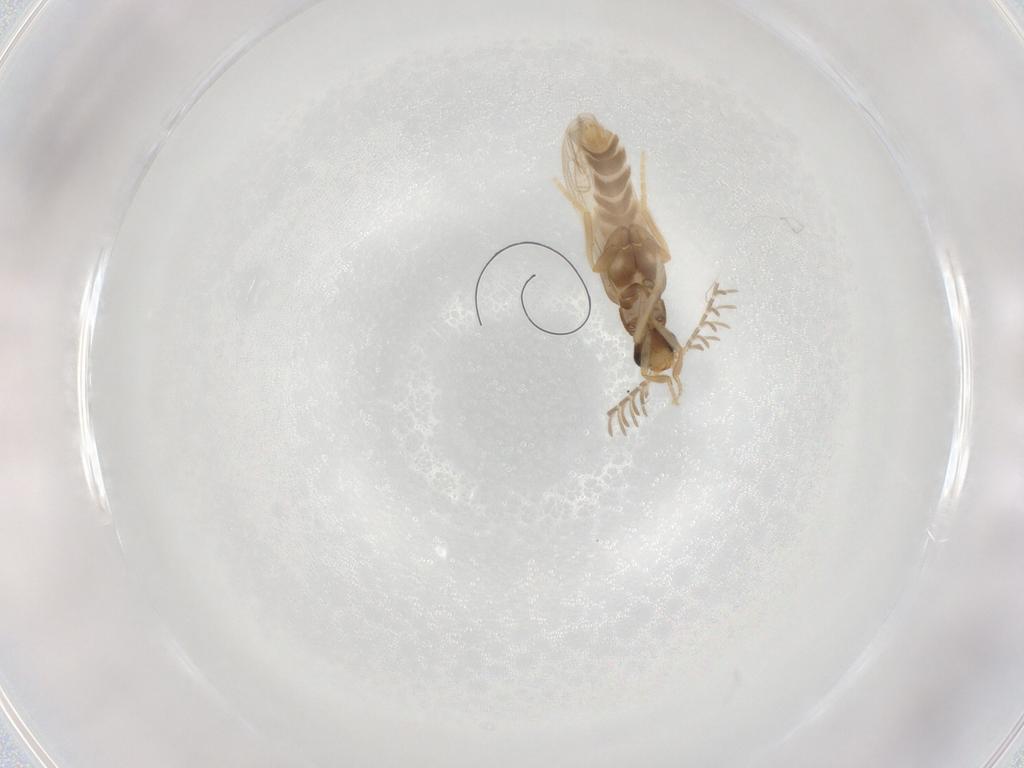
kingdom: Animalia
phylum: Arthropoda
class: Insecta
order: Coleoptera
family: Phengodidae
